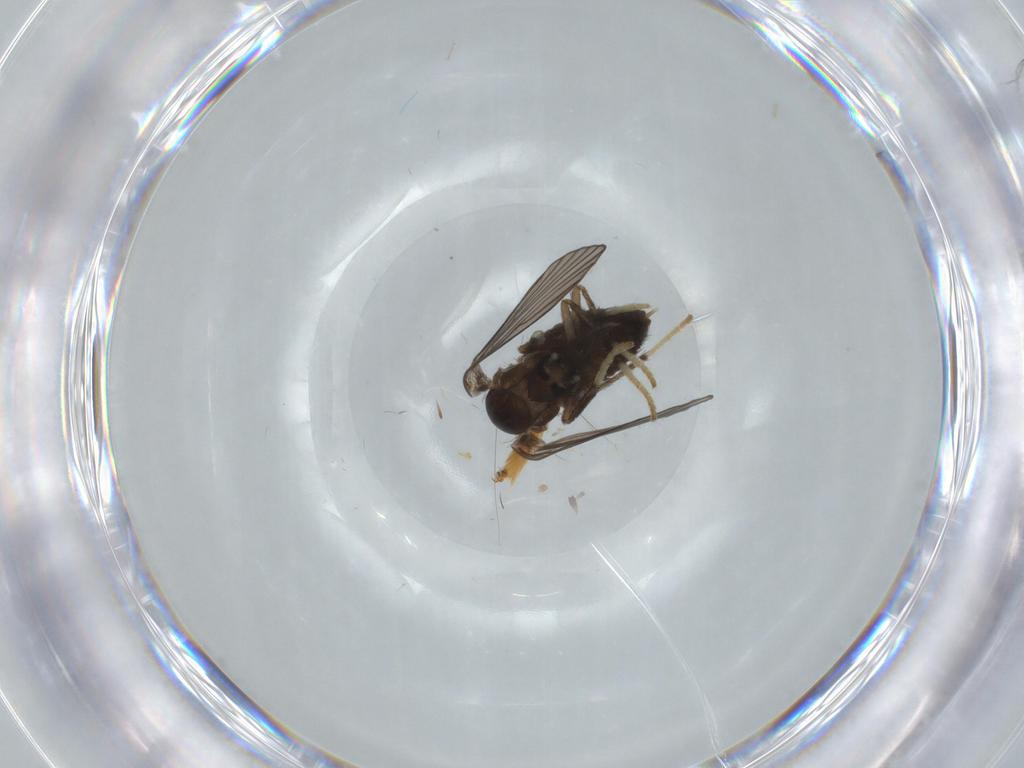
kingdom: Animalia
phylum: Arthropoda
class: Insecta
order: Diptera
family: Psychodidae
